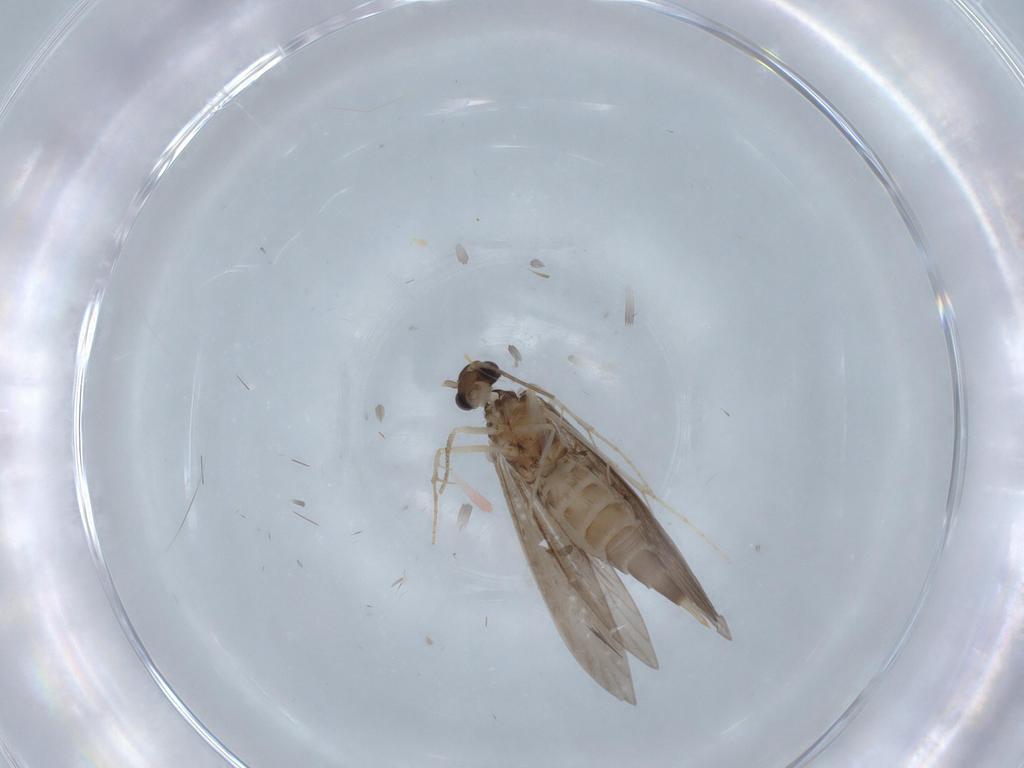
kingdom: Animalia
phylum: Arthropoda
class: Insecta
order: Trichoptera
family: Xiphocentronidae
